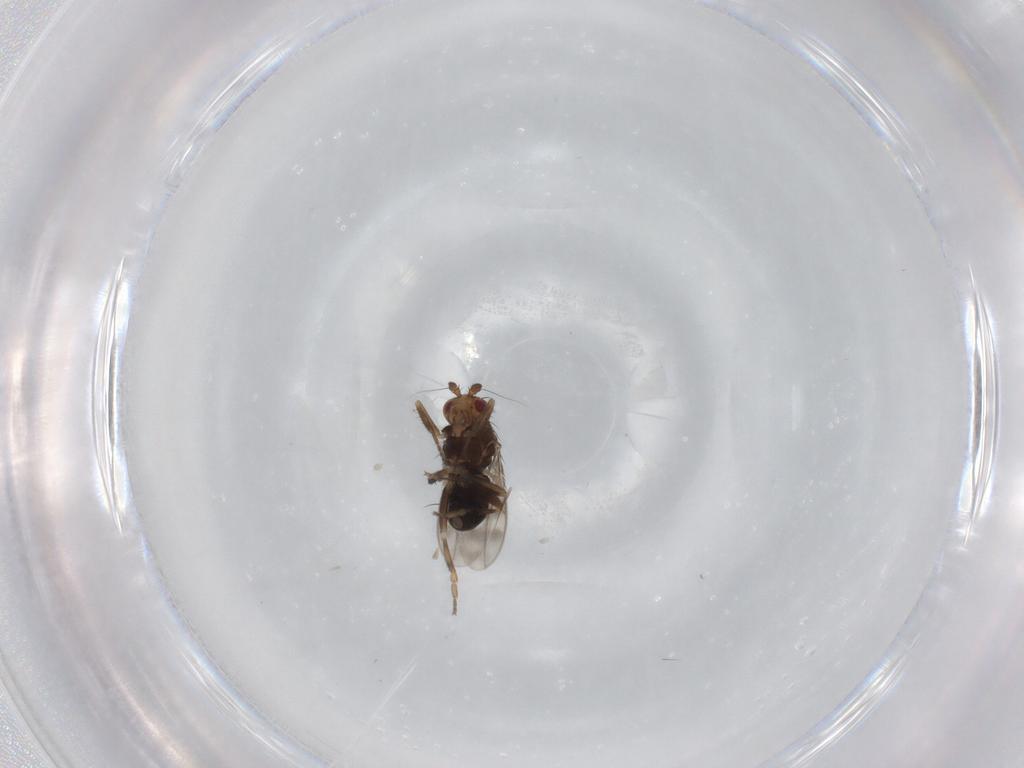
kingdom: Animalia
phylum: Arthropoda
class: Insecta
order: Diptera
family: Sphaeroceridae
